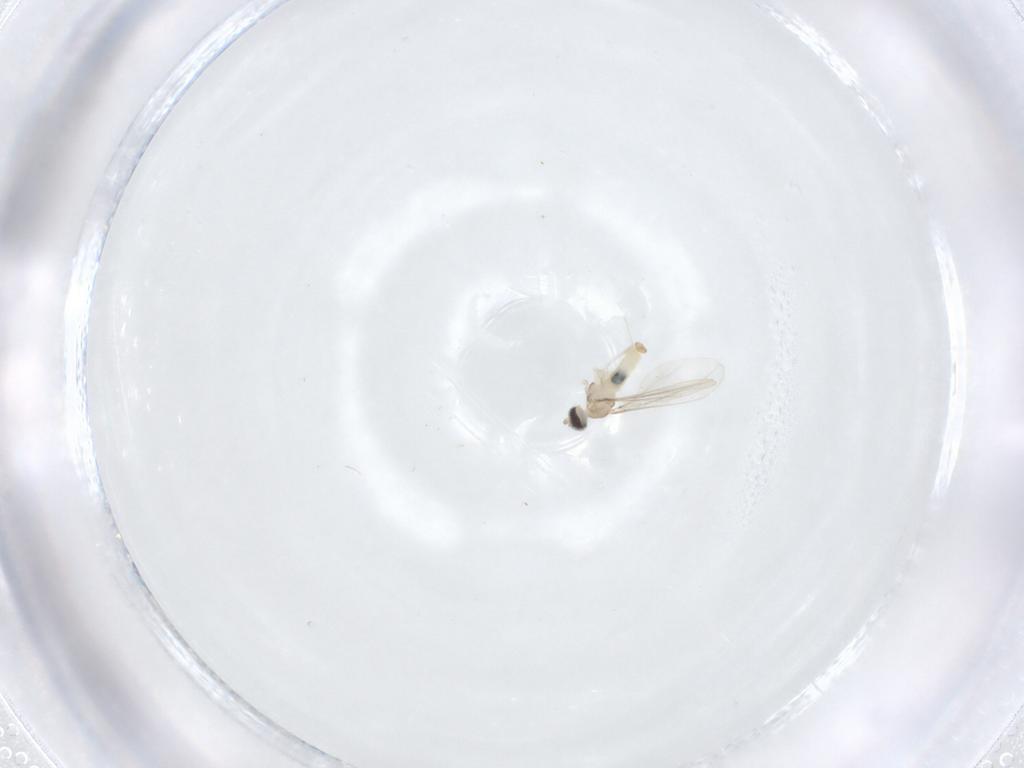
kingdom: Animalia
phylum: Arthropoda
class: Insecta
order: Diptera
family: Cecidomyiidae
